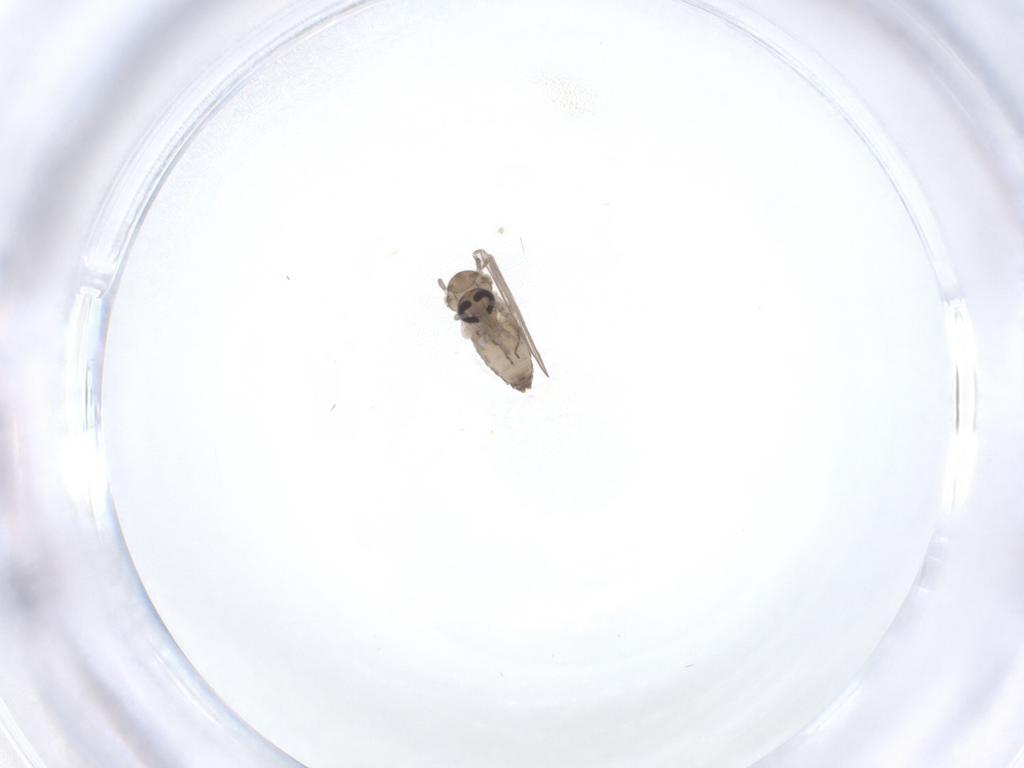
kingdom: Animalia
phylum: Arthropoda
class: Insecta
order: Diptera
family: Psychodidae
